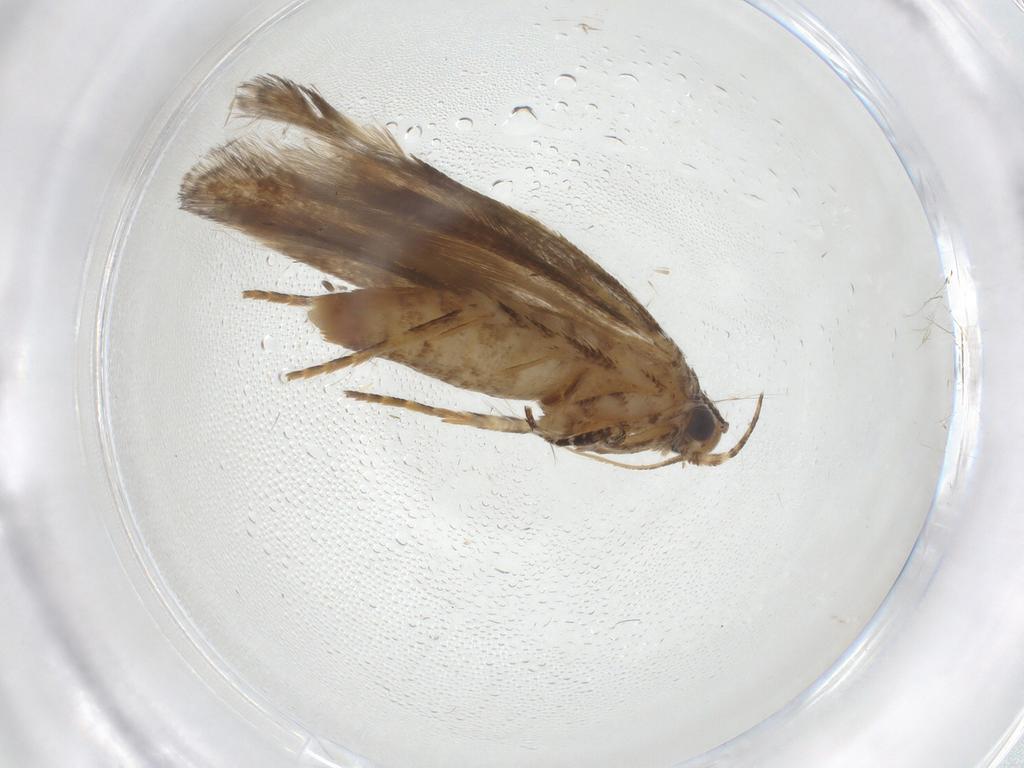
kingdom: Animalia
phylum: Arthropoda
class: Insecta
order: Lepidoptera
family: Gelechiidae
